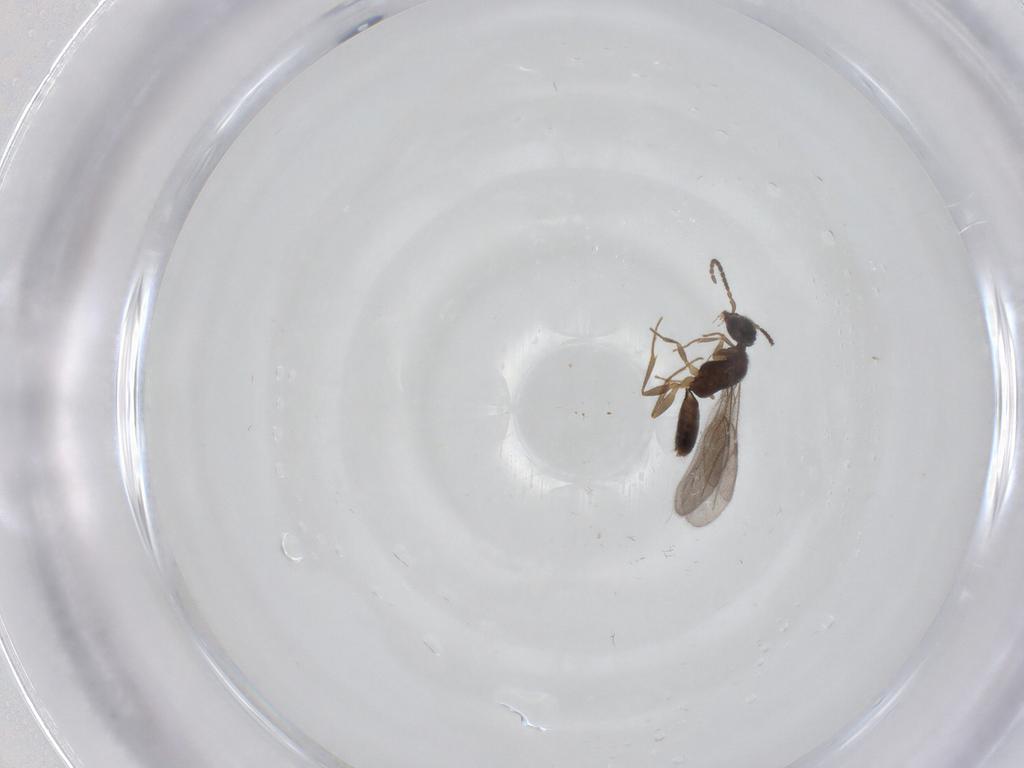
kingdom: Animalia
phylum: Arthropoda
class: Insecta
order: Hymenoptera
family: Bethylidae
